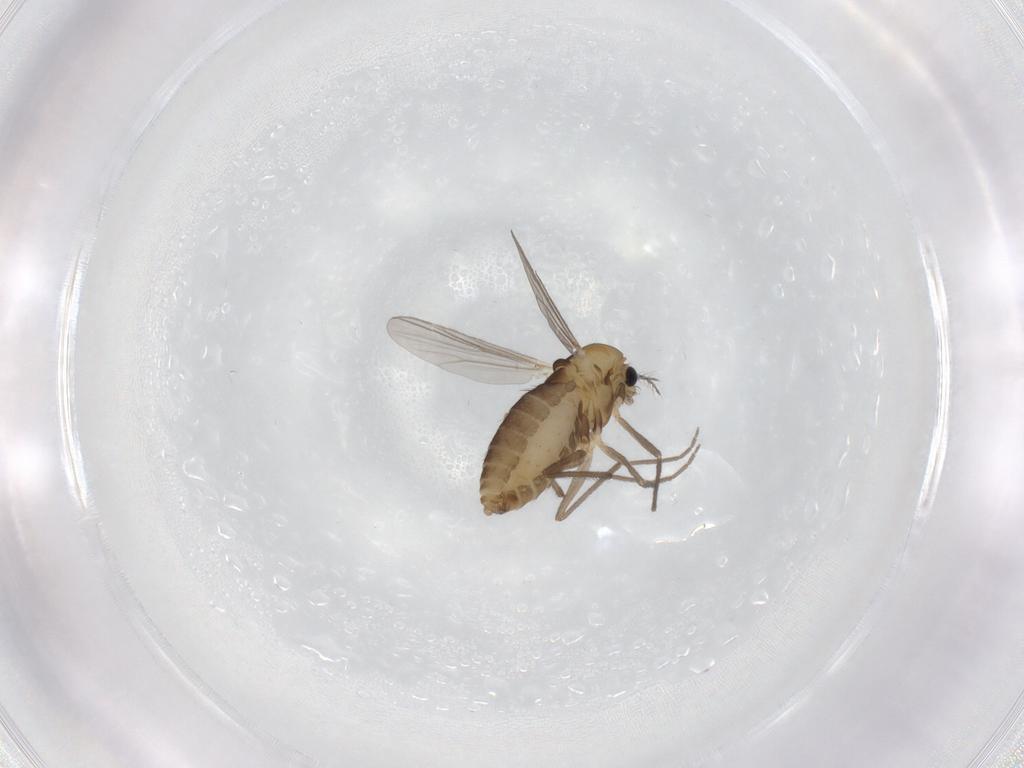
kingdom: Animalia
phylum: Arthropoda
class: Insecta
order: Diptera
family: Chironomidae
